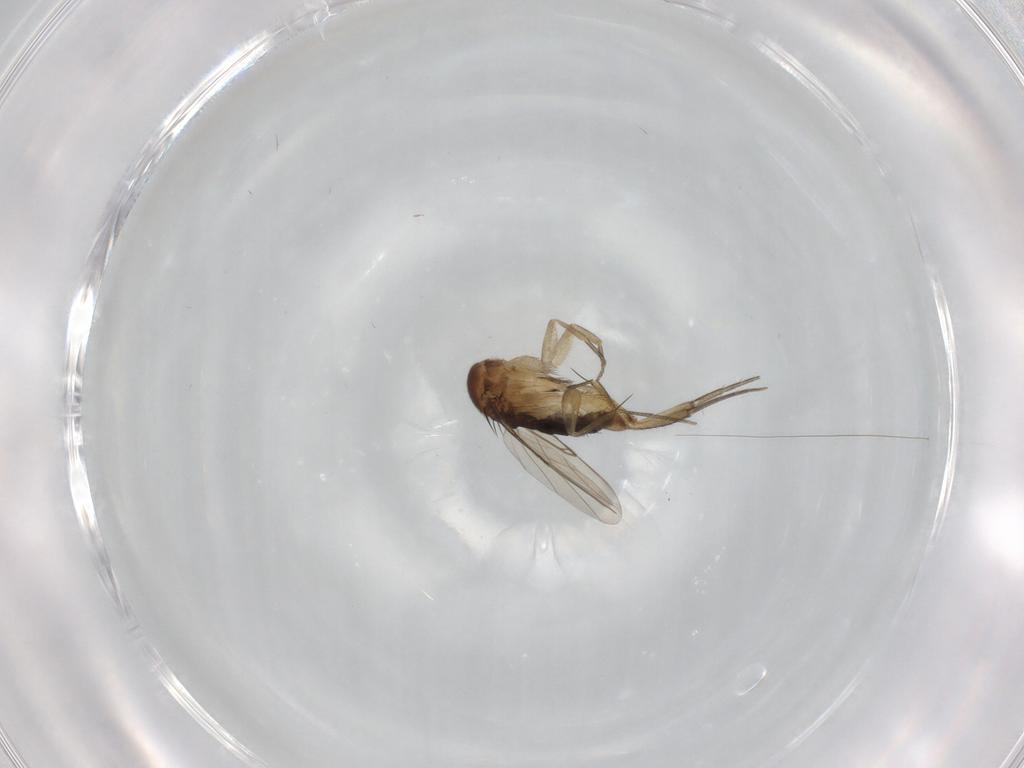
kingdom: Animalia
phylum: Arthropoda
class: Insecta
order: Diptera
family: Phoridae
